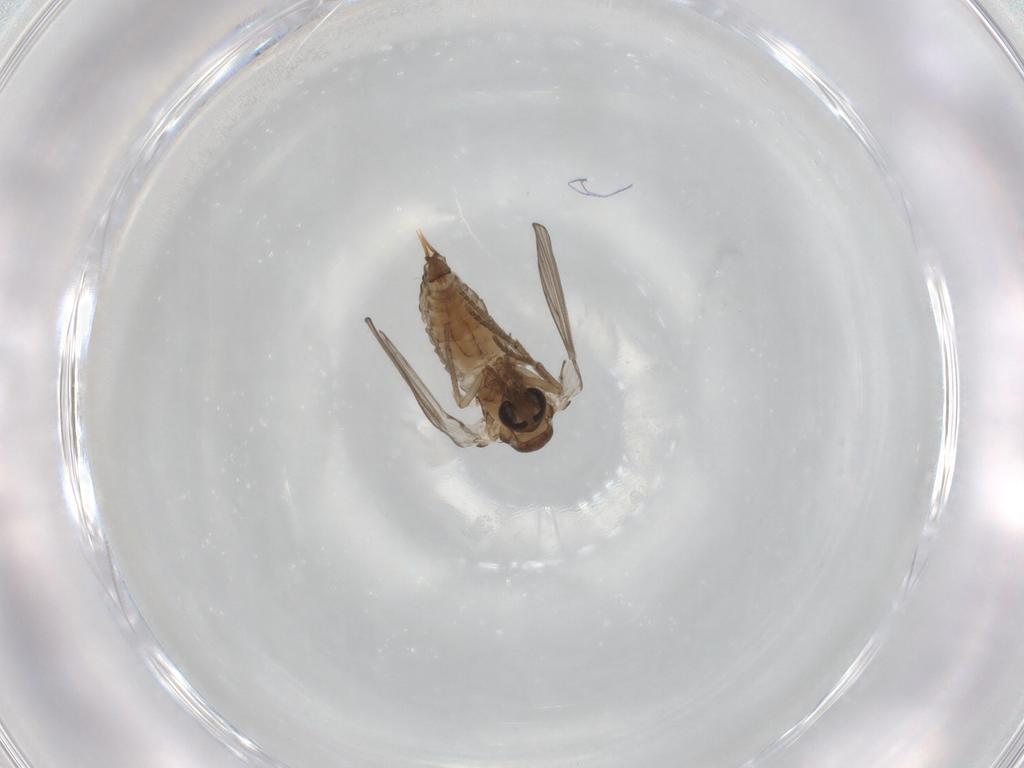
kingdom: Animalia
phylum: Arthropoda
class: Insecta
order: Diptera
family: Psychodidae
